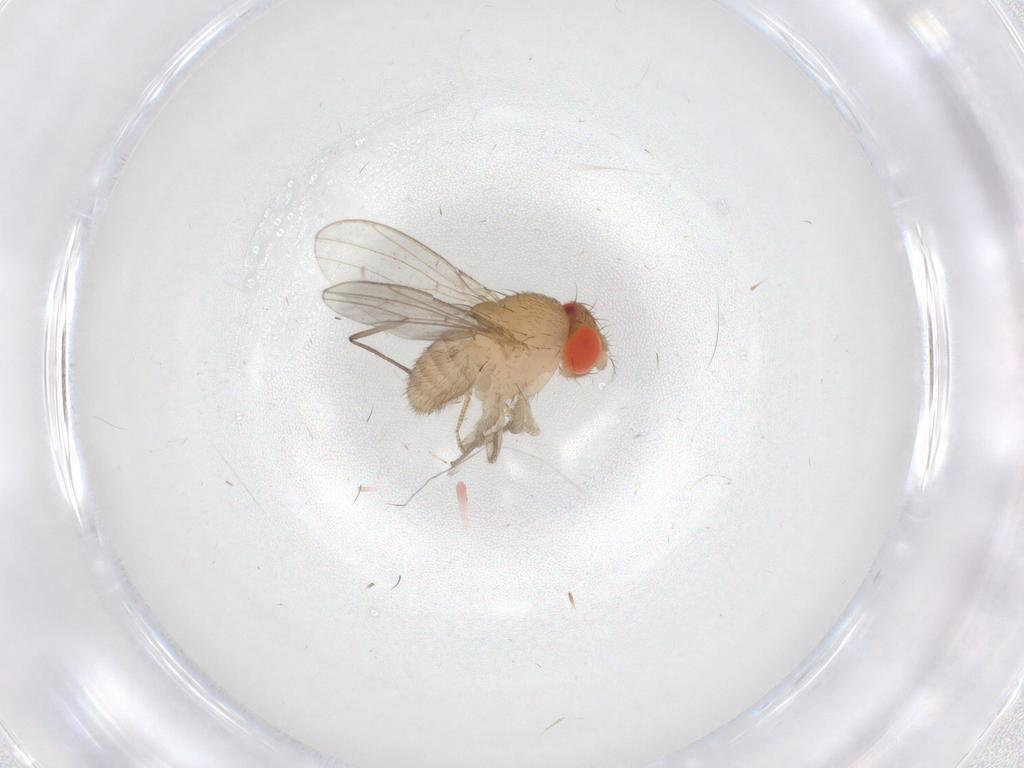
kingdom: Animalia
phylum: Arthropoda
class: Insecta
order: Diptera
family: Drosophilidae
